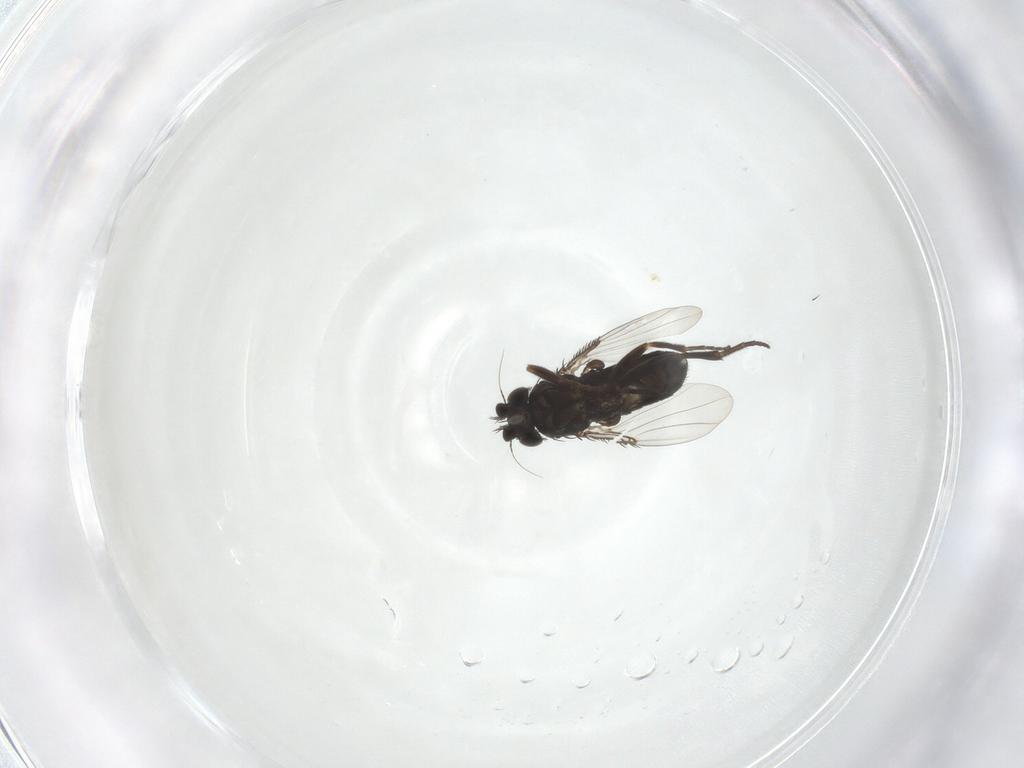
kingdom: Animalia
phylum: Arthropoda
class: Insecta
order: Diptera
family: Phoridae
